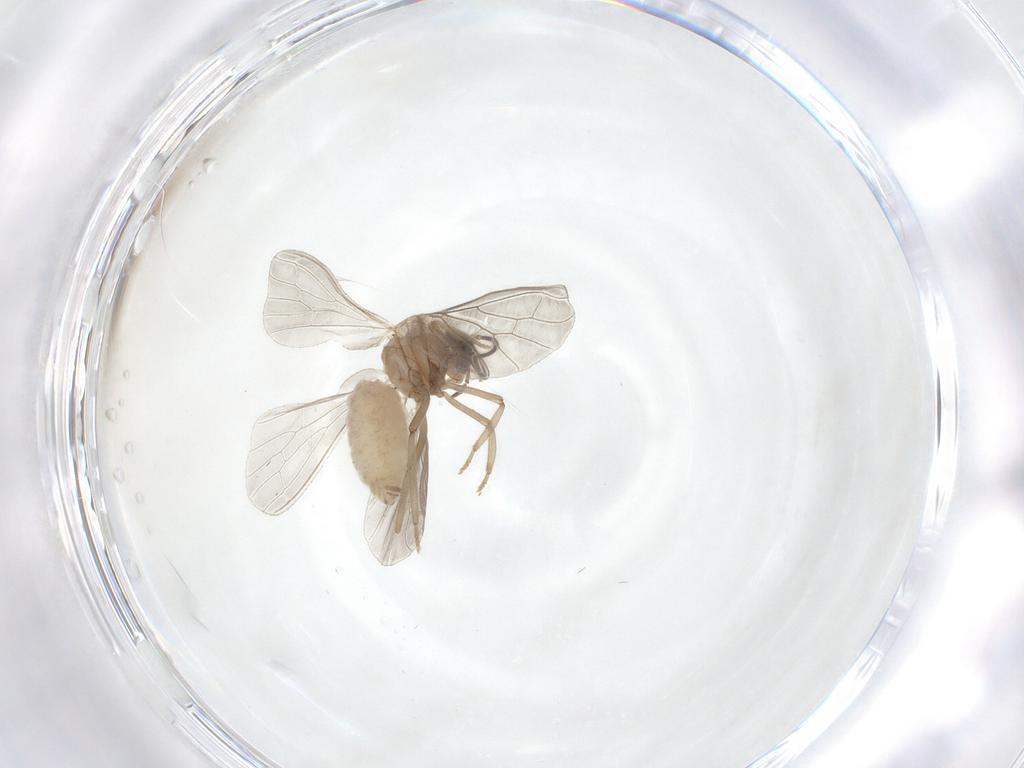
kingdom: Animalia
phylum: Arthropoda
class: Insecta
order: Neuroptera
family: Coniopterygidae
